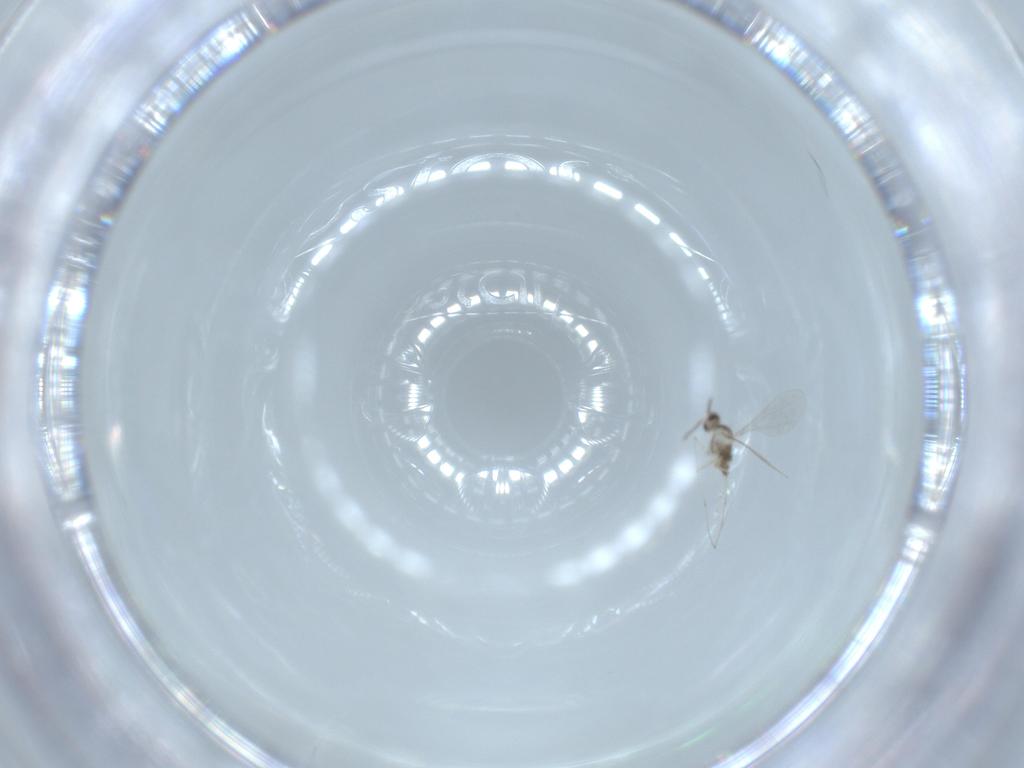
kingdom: Animalia
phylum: Arthropoda
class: Insecta
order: Diptera
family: Cecidomyiidae
